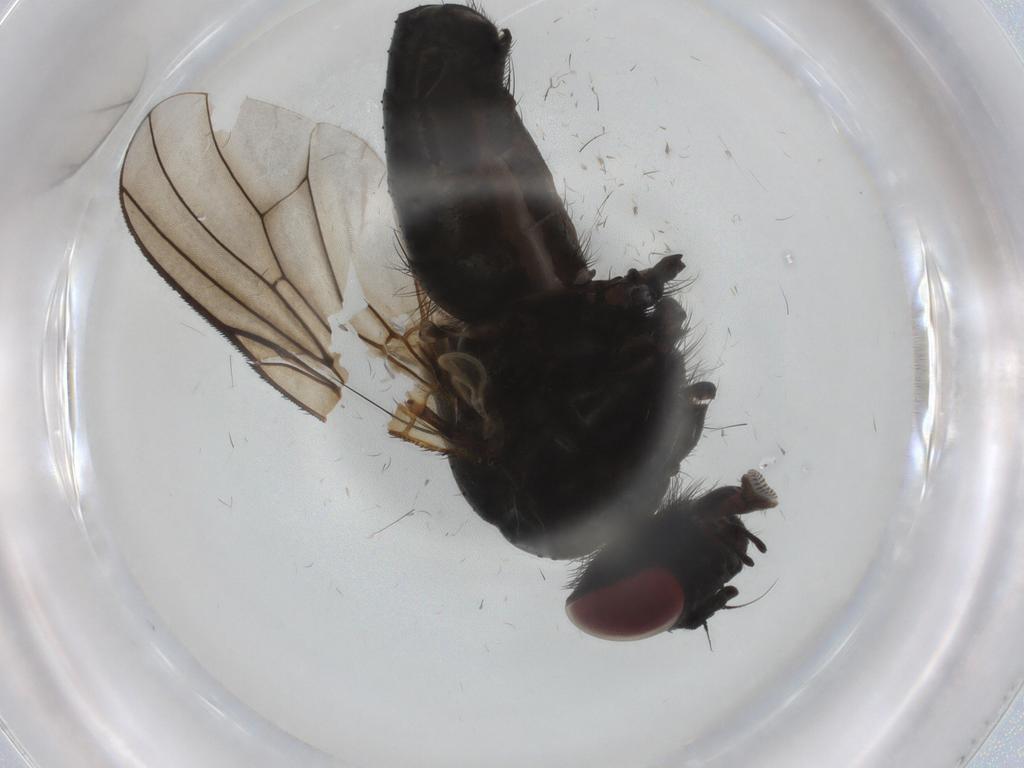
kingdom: Animalia
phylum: Arthropoda
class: Insecta
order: Diptera
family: Muscidae
